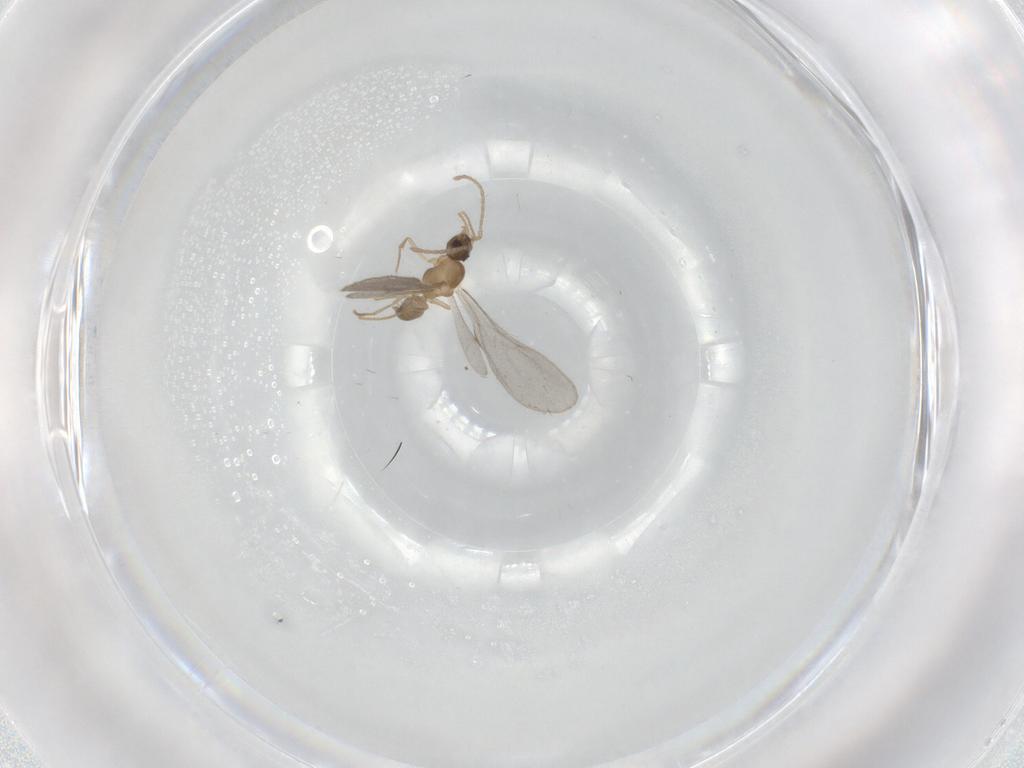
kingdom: Animalia
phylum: Arthropoda
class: Insecta
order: Hymenoptera
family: Formicidae
